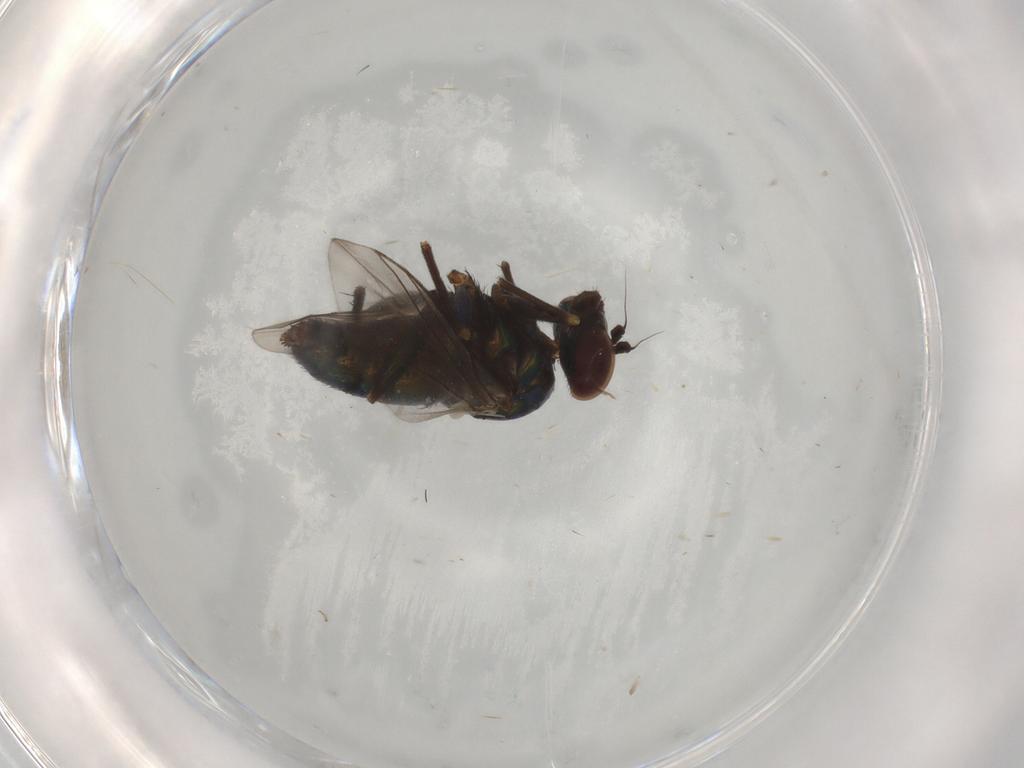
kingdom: Animalia
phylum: Arthropoda
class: Insecta
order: Diptera
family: Dolichopodidae
